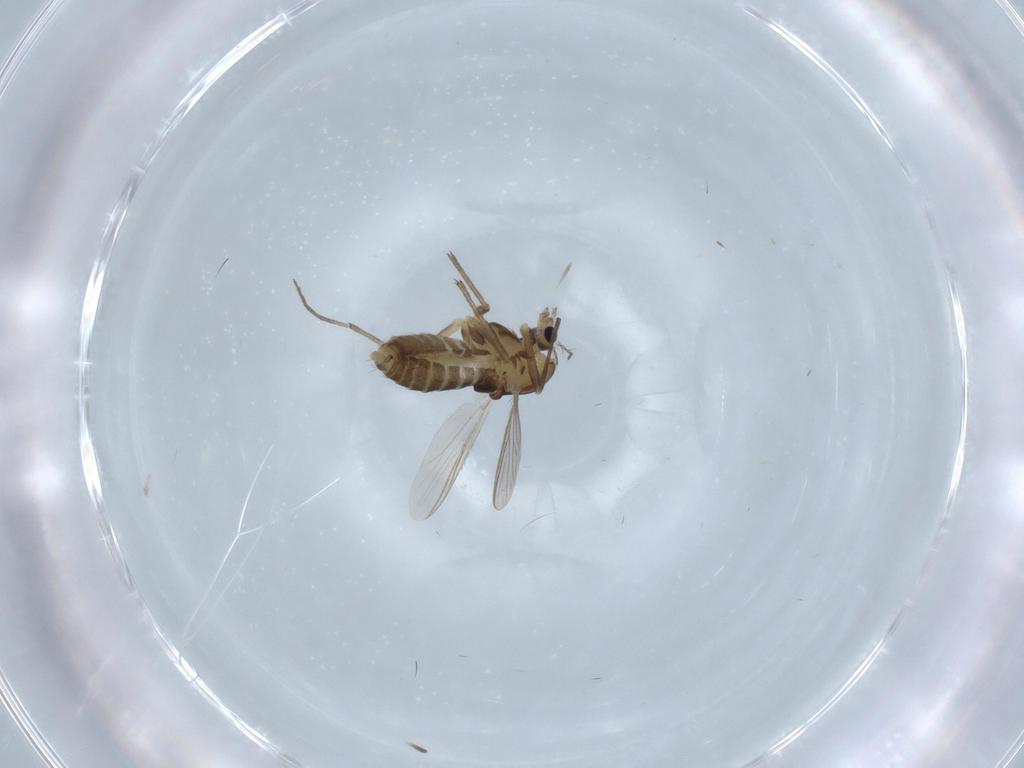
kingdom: Animalia
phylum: Arthropoda
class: Insecta
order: Diptera
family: Chironomidae
